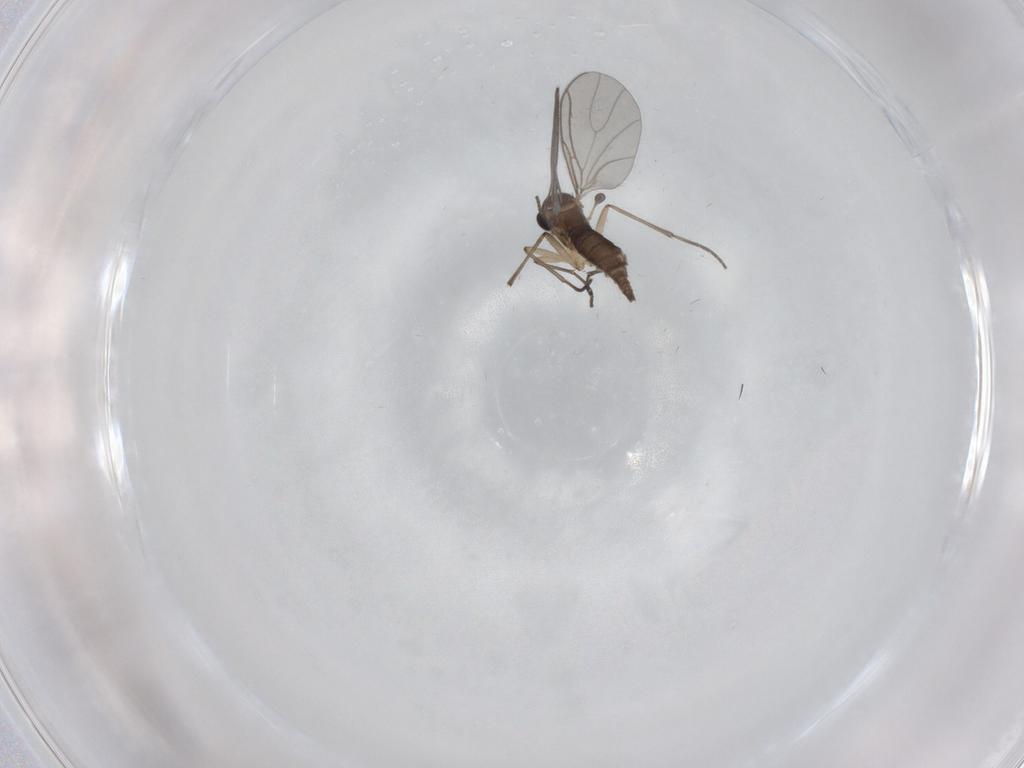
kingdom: Animalia
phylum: Arthropoda
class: Insecta
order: Diptera
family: Sciaridae
